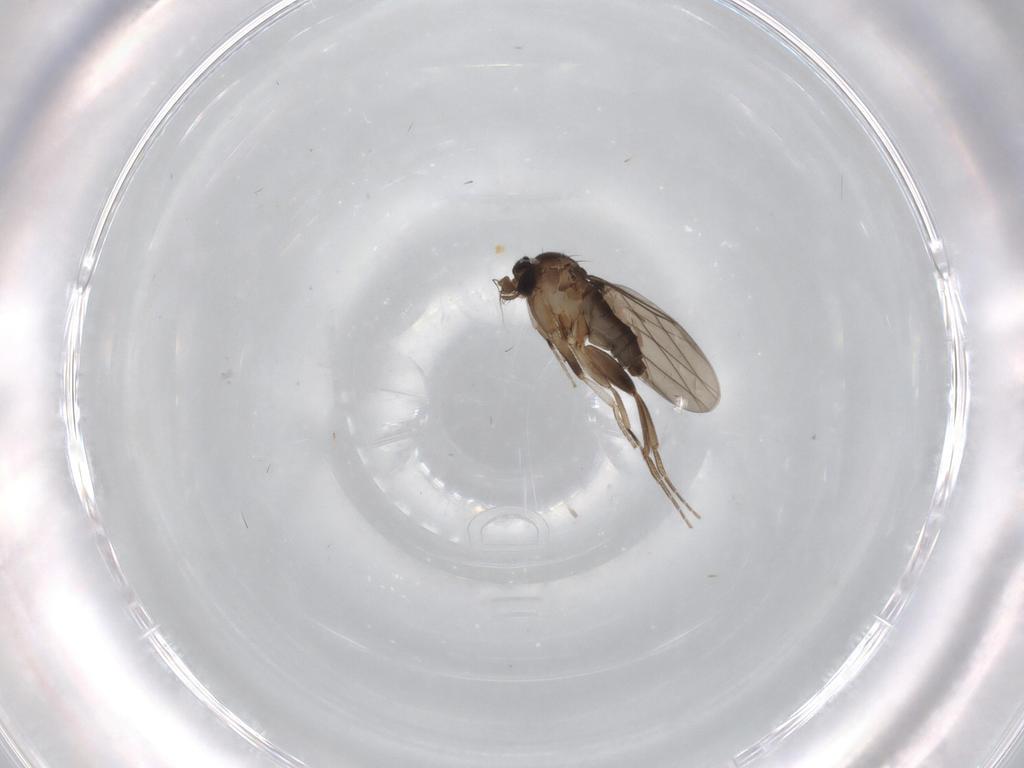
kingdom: Animalia
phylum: Arthropoda
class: Insecta
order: Diptera
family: Phoridae
